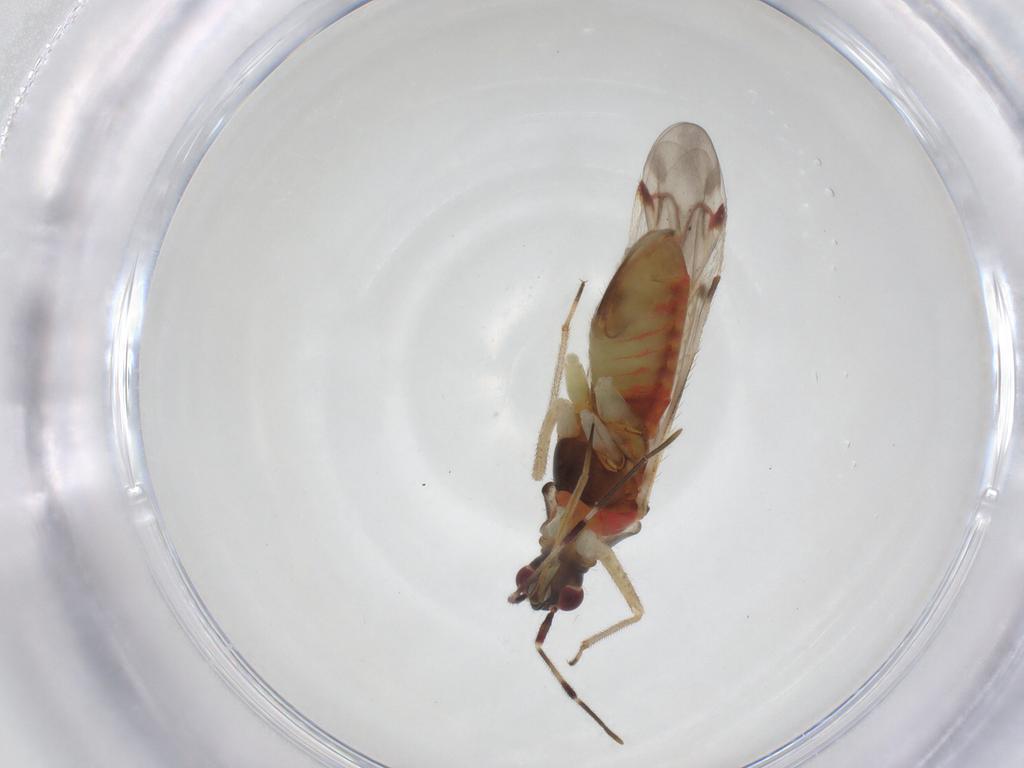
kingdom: Animalia
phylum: Arthropoda
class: Insecta
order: Hemiptera
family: Miridae
